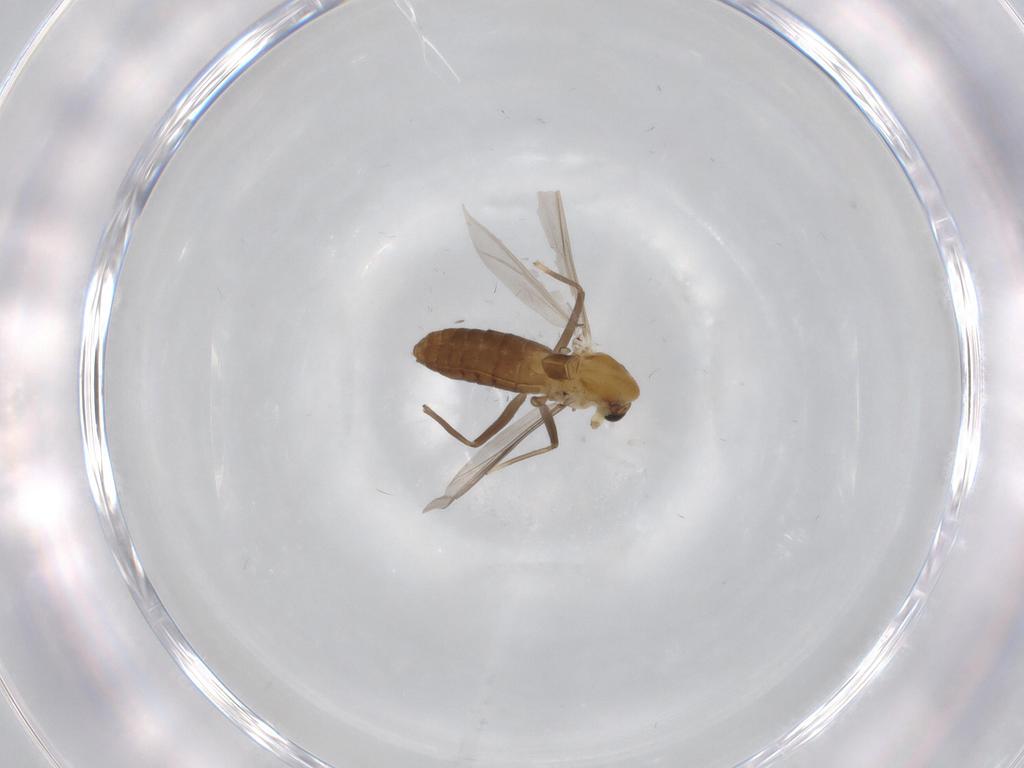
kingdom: Animalia
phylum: Arthropoda
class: Insecta
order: Diptera
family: Chironomidae
